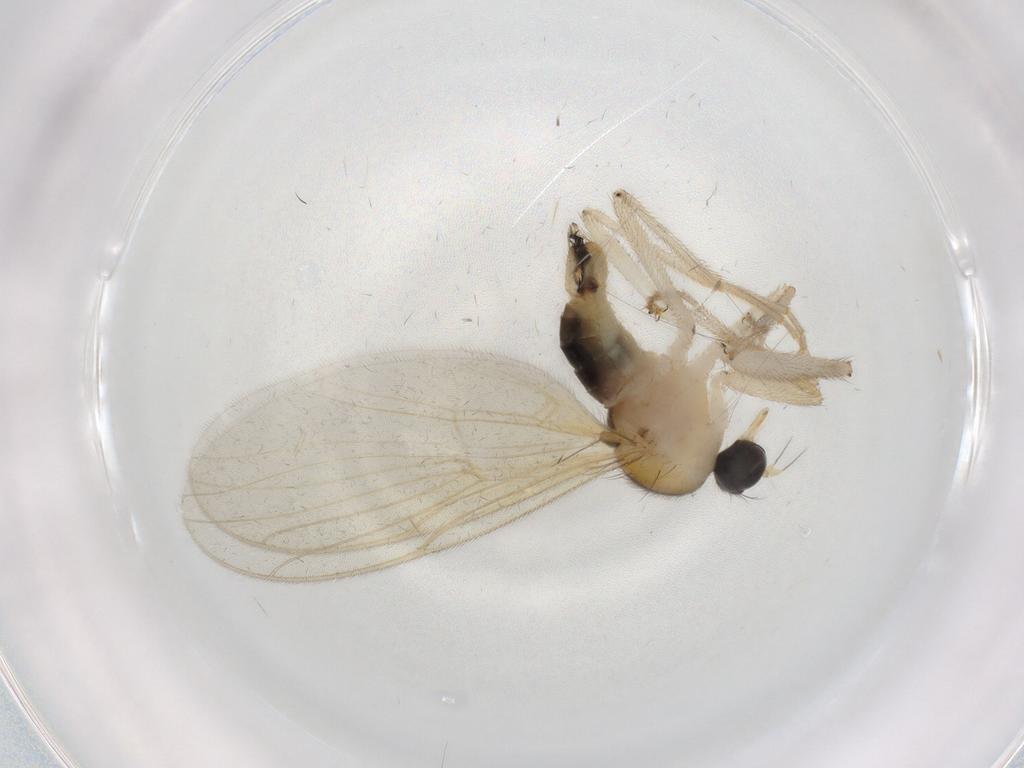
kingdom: Animalia
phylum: Arthropoda
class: Insecta
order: Diptera
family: Hybotidae
